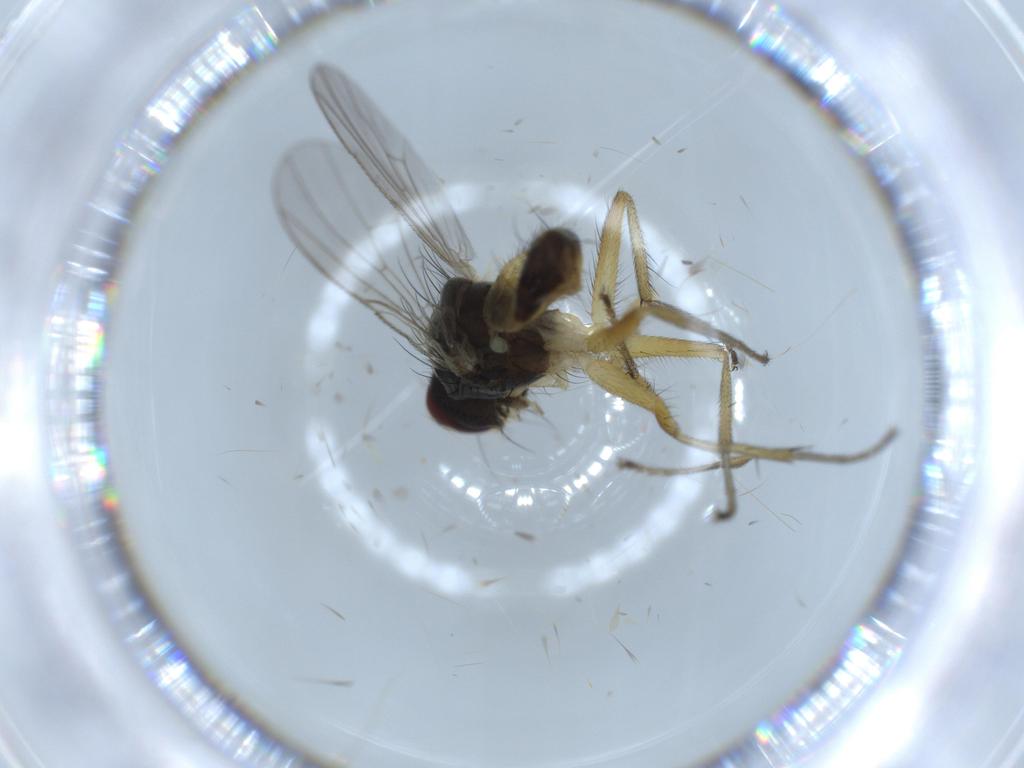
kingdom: Animalia
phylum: Arthropoda
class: Insecta
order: Diptera
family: Muscidae
